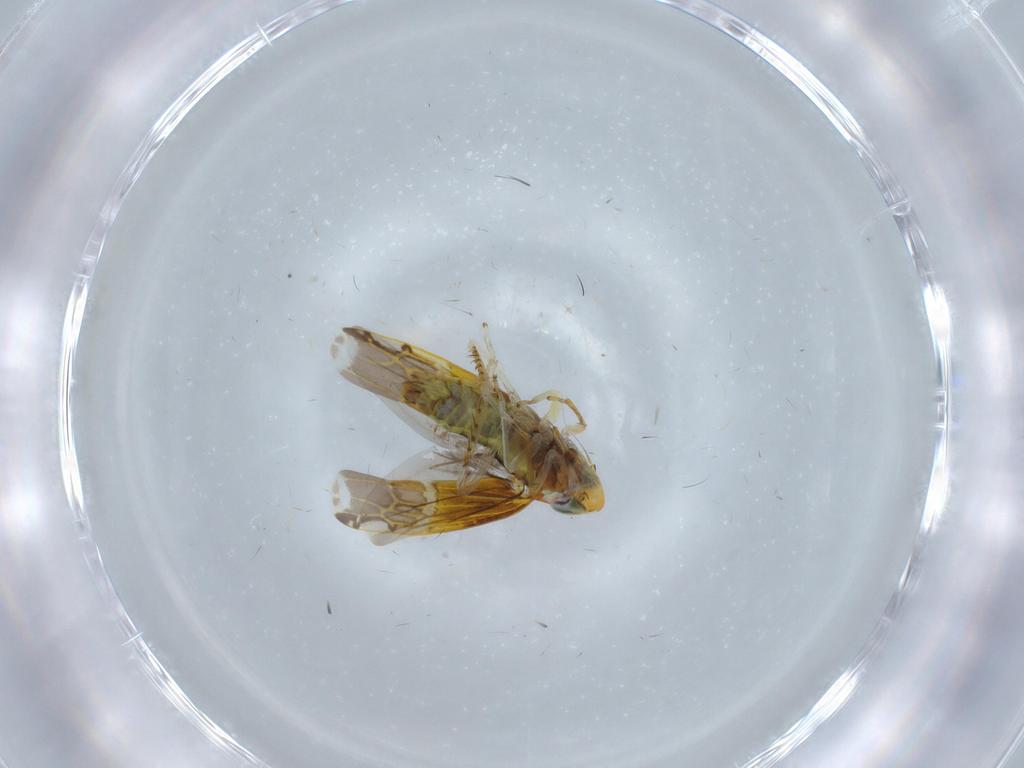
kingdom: Animalia
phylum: Arthropoda
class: Insecta
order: Hemiptera
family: Cicadellidae
